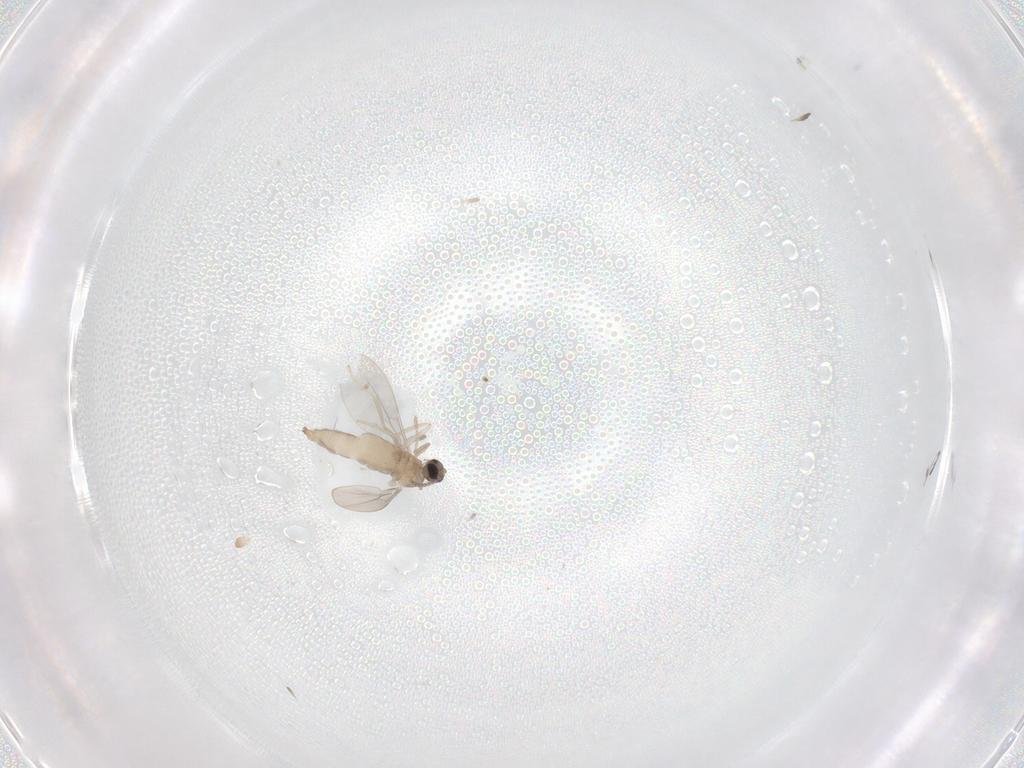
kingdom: Animalia
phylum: Arthropoda
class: Insecta
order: Diptera
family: Cecidomyiidae
